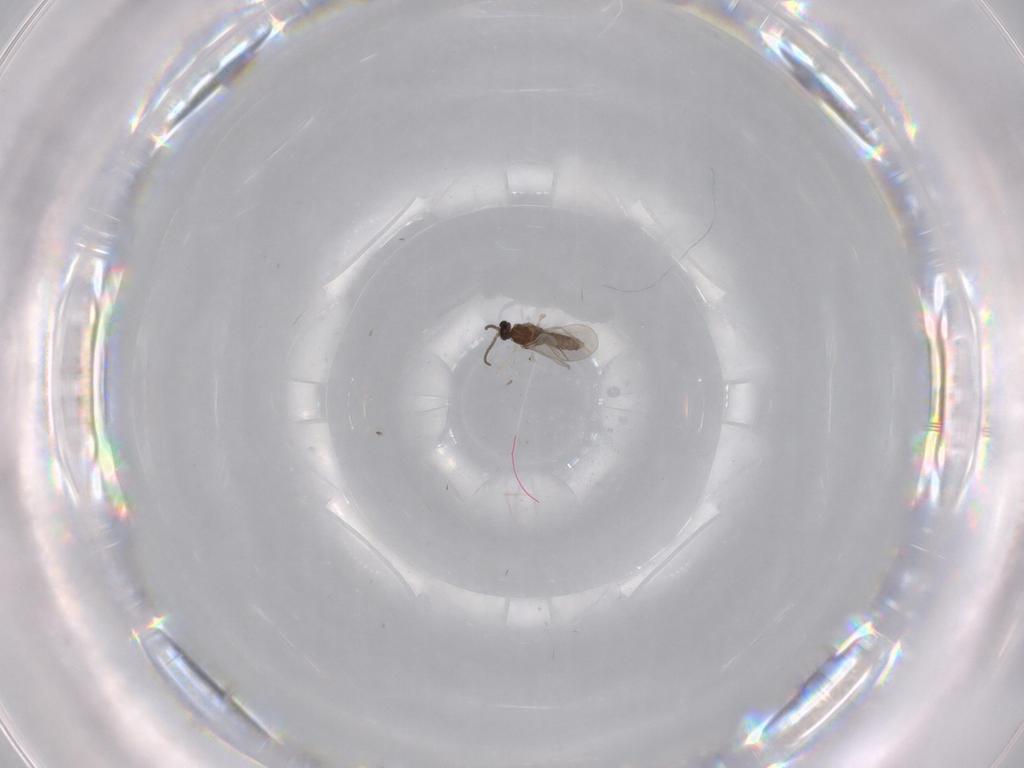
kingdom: Animalia
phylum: Arthropoda
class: Insecta
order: Diptera
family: Cecidomyiidae
